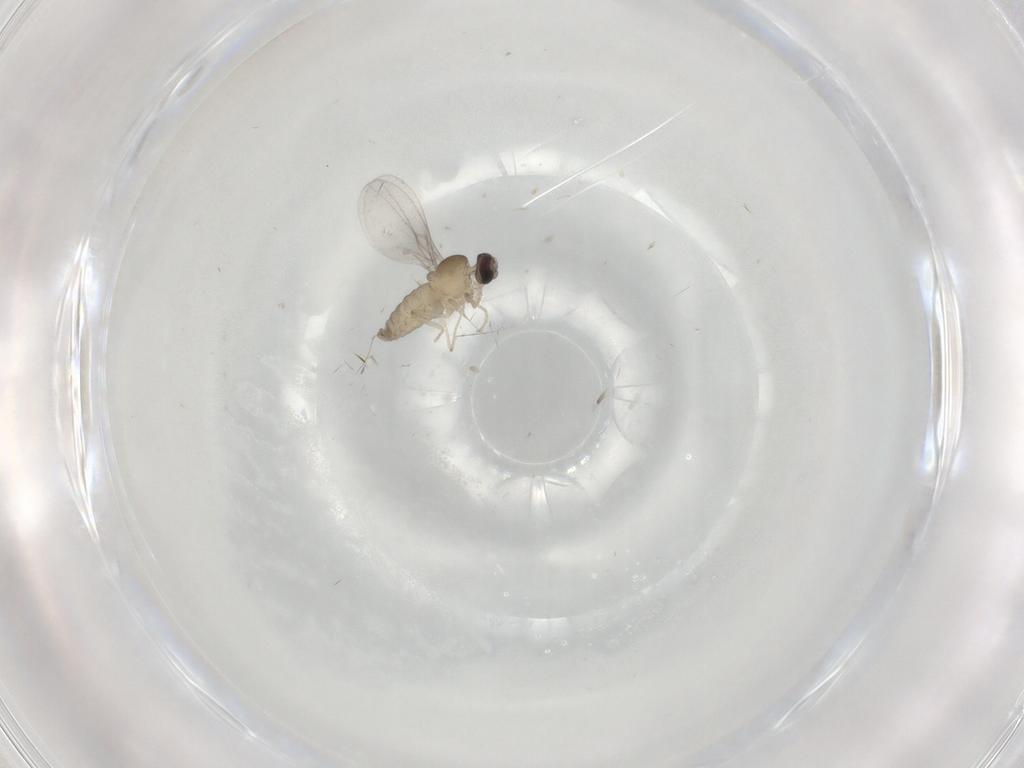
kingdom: Animalia
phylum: Arthropoda
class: Insecta
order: Diptera
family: Cecidomyiidae
